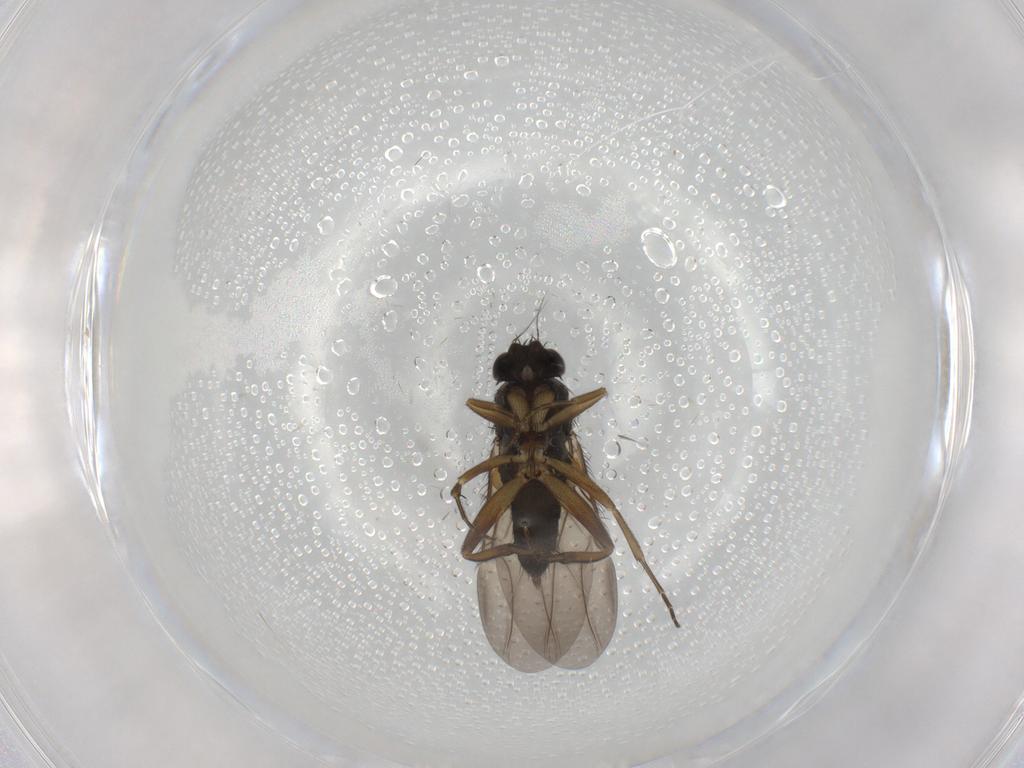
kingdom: Animalia
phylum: Arthropoda
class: Insecta
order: Diptera
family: Phoridae
